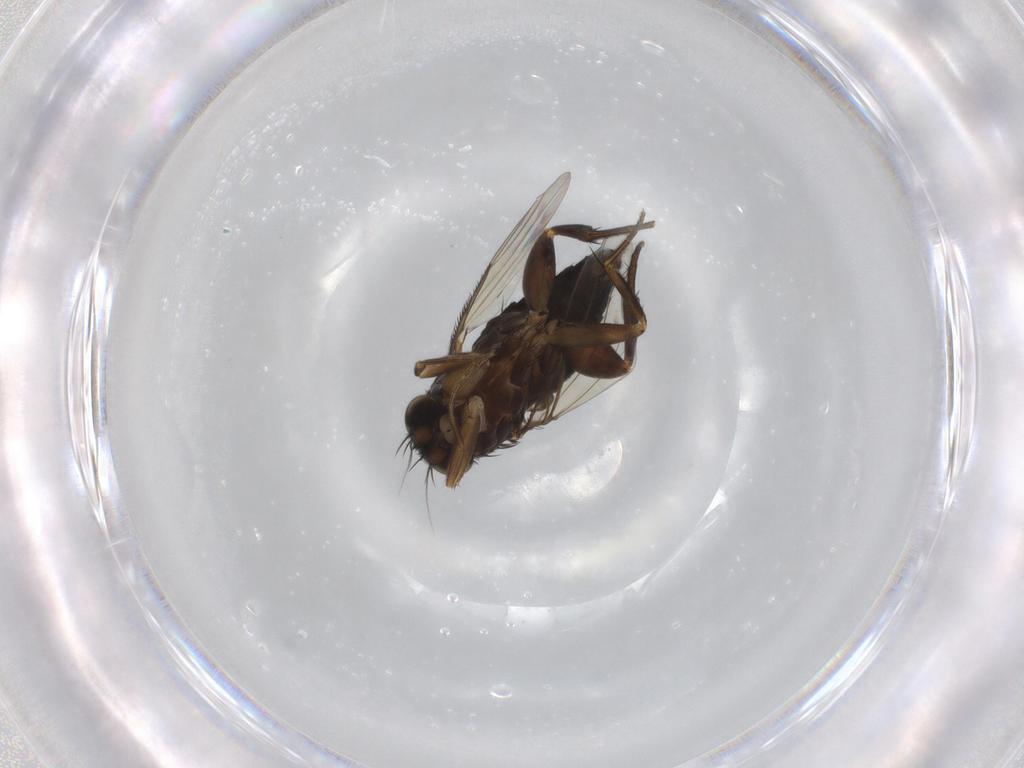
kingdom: Animalia
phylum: Arthropoda
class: Insecta
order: Diptera
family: Phoridae
